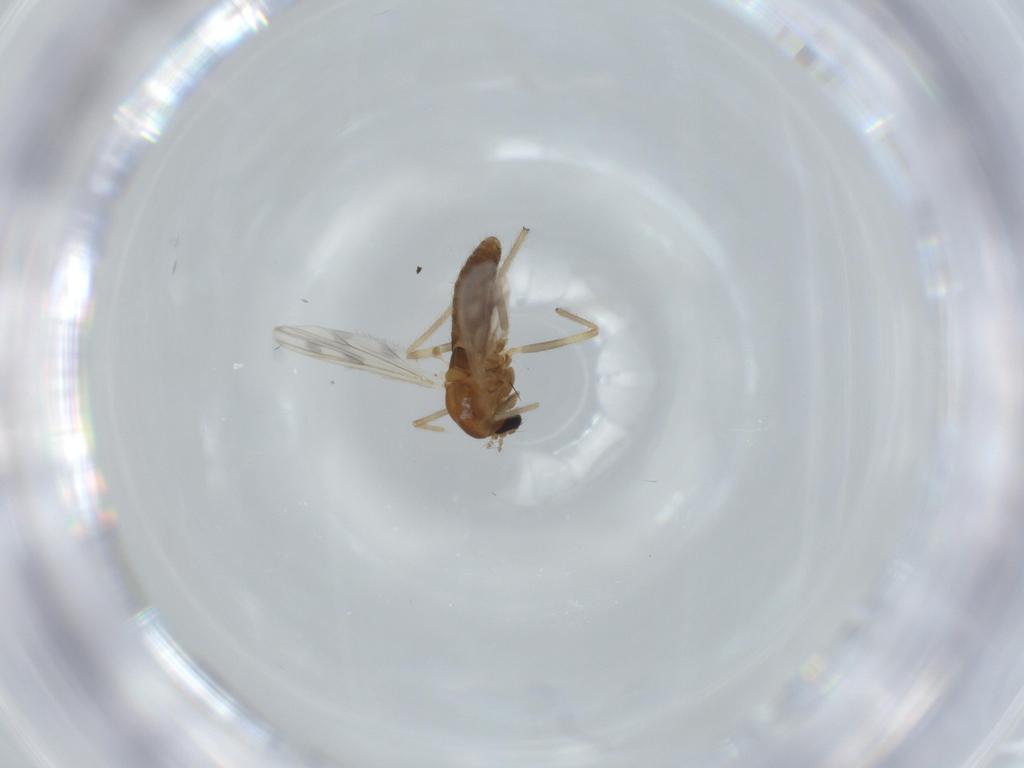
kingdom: Animalia
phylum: Arthropoda
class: Insecta
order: Diptera
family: Chironomidae
